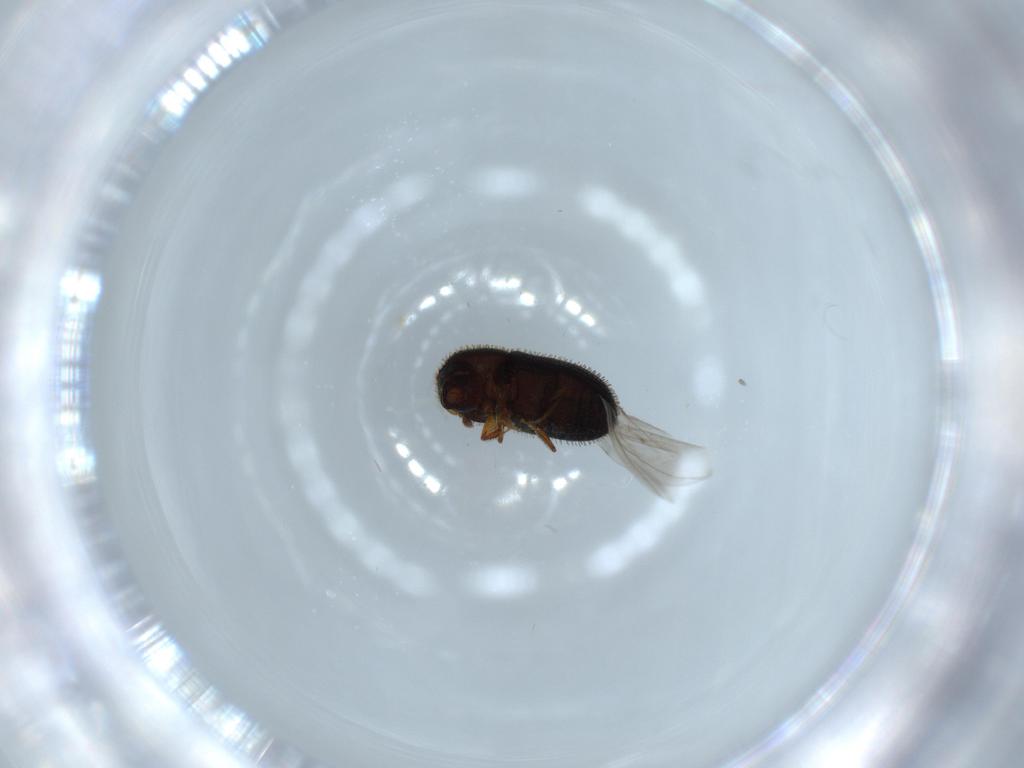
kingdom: Animalia
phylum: Arthropoda
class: Insecta
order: Coleoptera
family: Curculionidae
